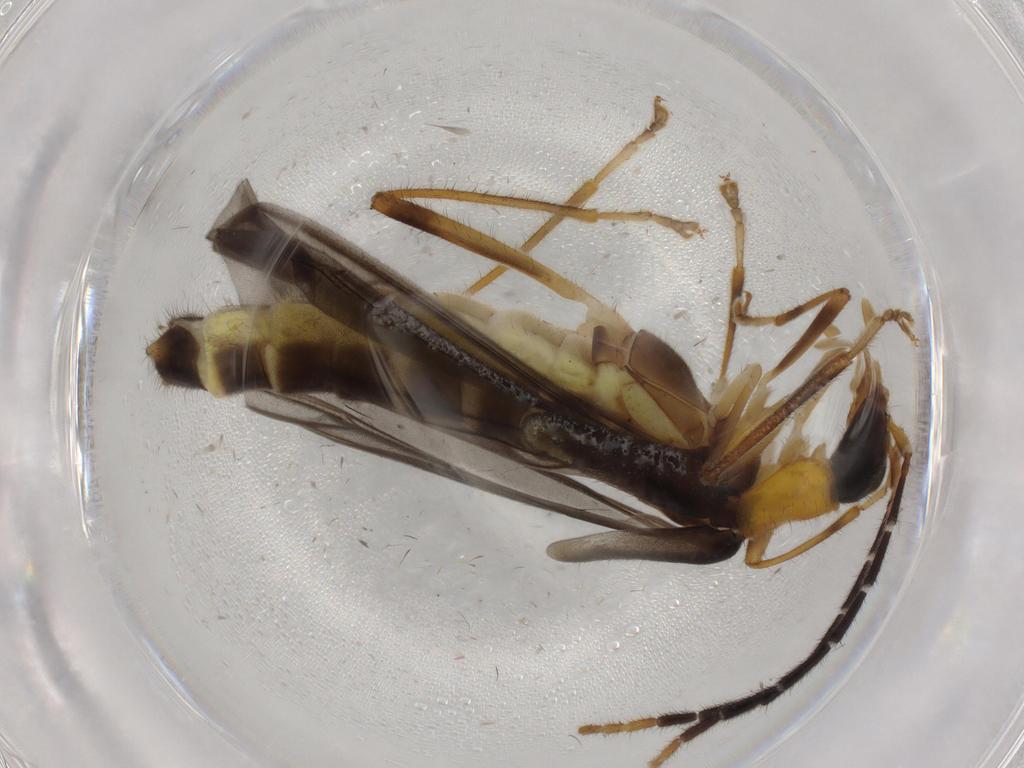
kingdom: Animalia
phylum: Arthropoda
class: Insecta
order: Coleoptera
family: Cantharidae
